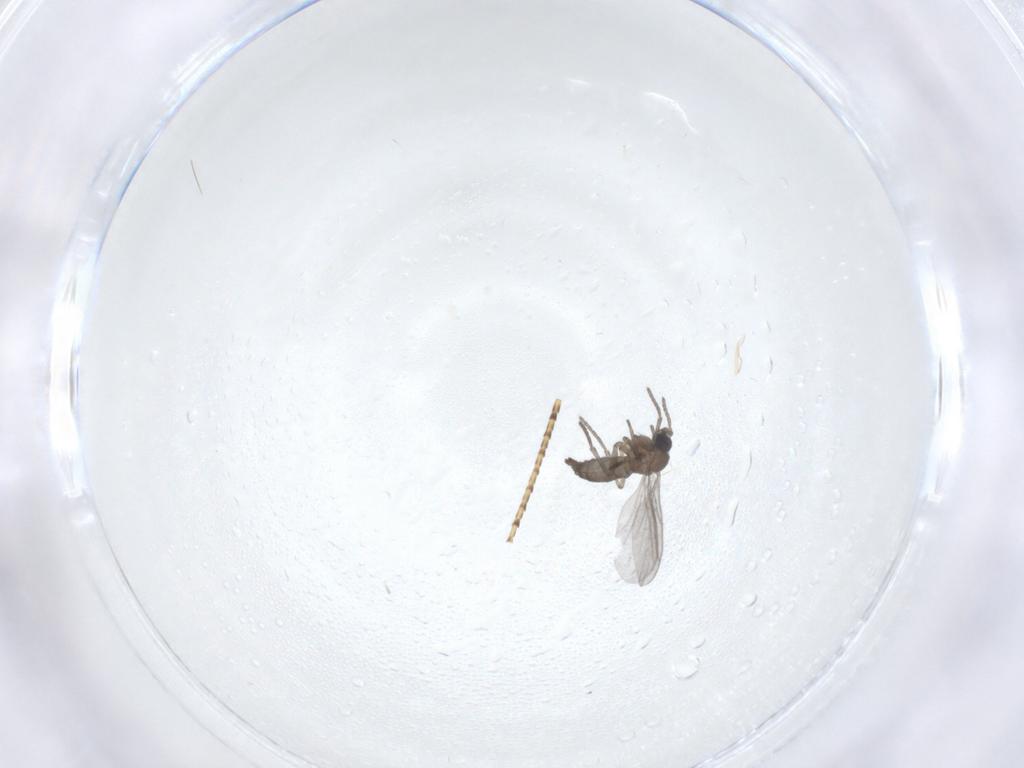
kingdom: Animalia
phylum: Arthropoda
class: Insecta
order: Diptera
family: Sciaridae
